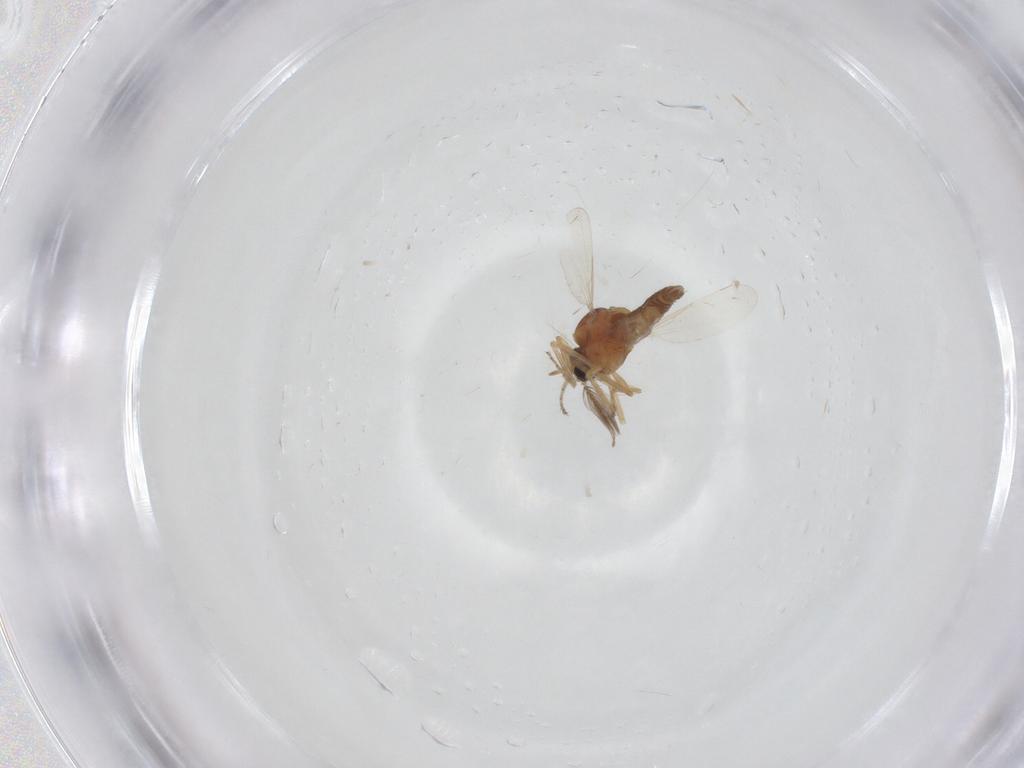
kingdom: Animalia
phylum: Arthropoda
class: Insecta
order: Diptera
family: Ceratopogonidae
